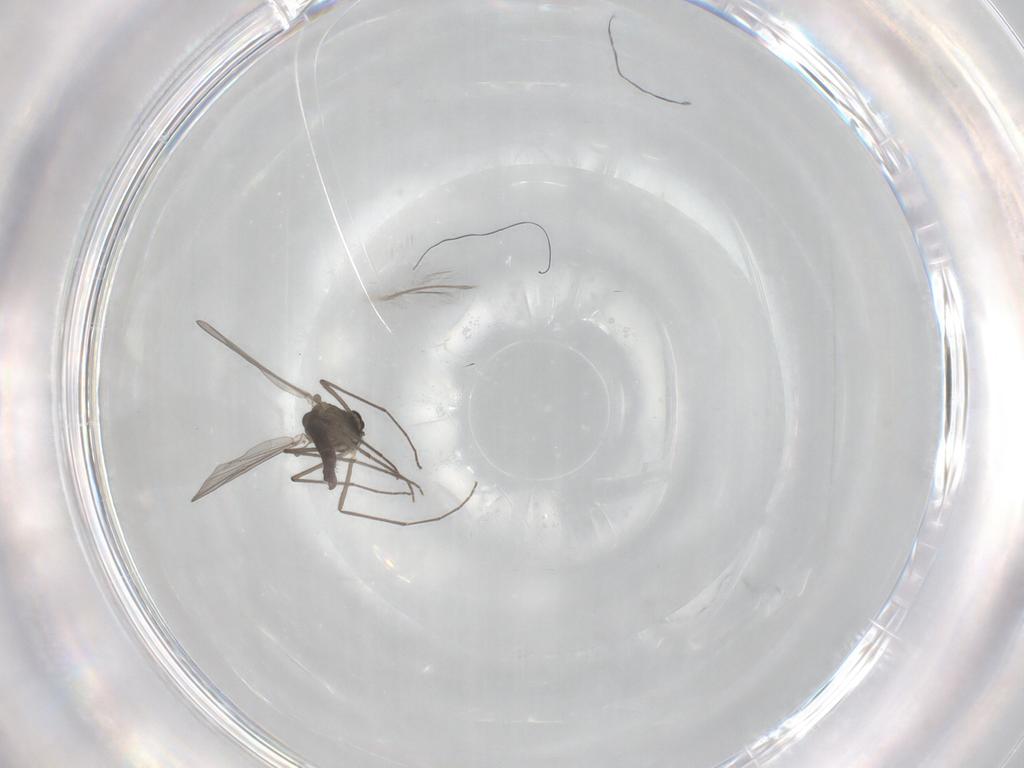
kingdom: Animalia
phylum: Arthropoda
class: Insecta
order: Diptera
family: Chironomidae
